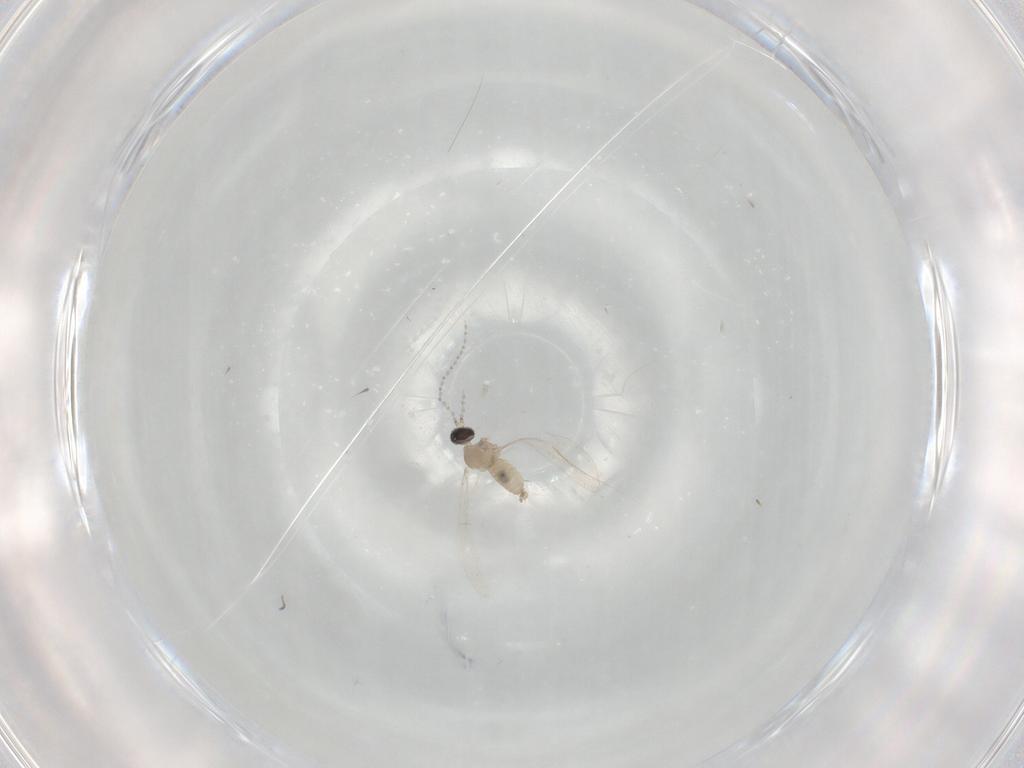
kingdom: Animalia
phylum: Arthropoda
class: Insecta
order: Diptera
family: Cecidomyiidae
